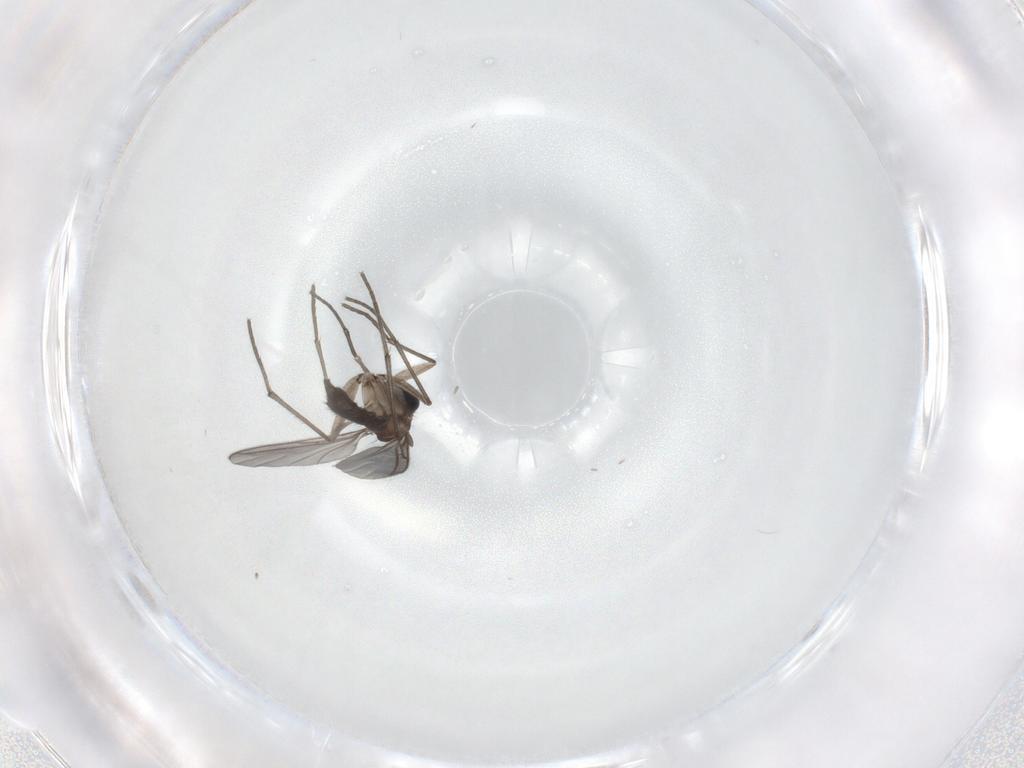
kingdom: Animalia
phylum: Arthropoda
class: Insecta
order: Diptera
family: Sciaridae
